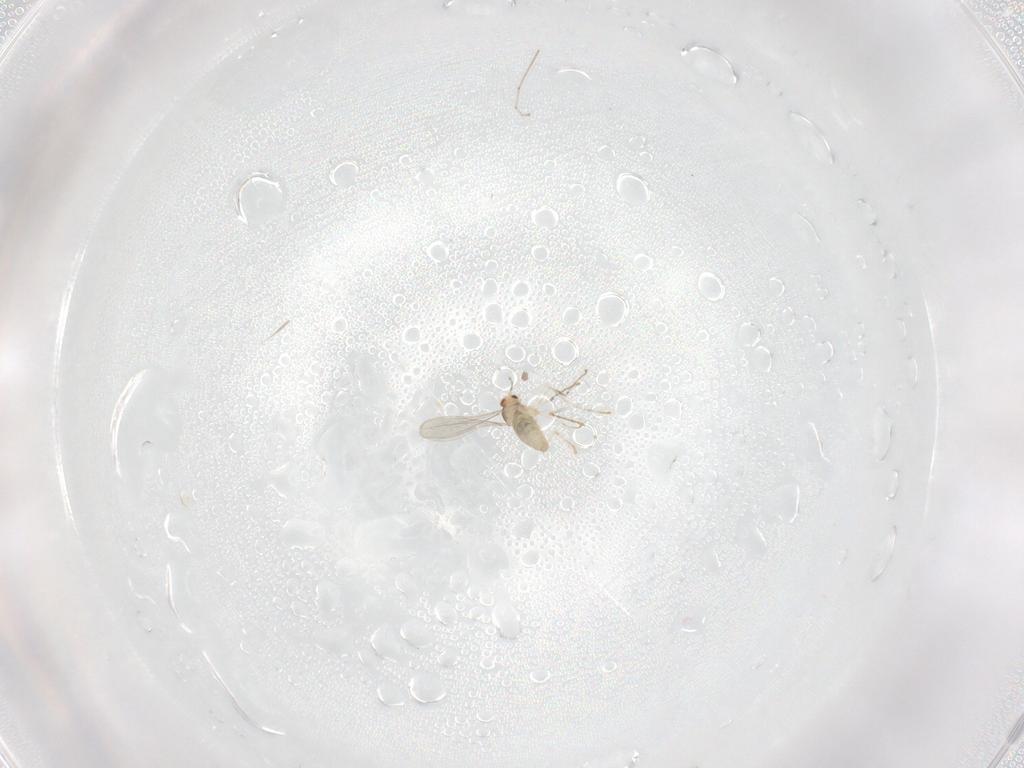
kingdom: Animalia
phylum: Arthropoda
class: Insecta
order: Diptera
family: Cecidomyiidae
